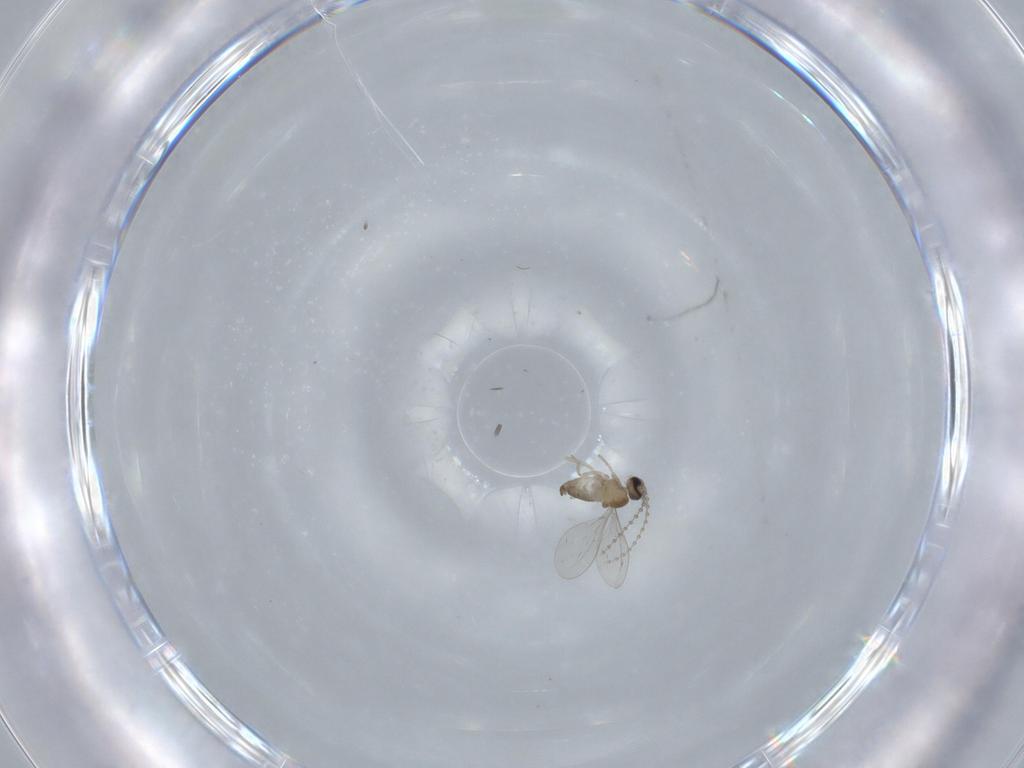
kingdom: Animalia
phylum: Arthropoda
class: Insecta
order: Diptera
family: Cecidomyiidae
